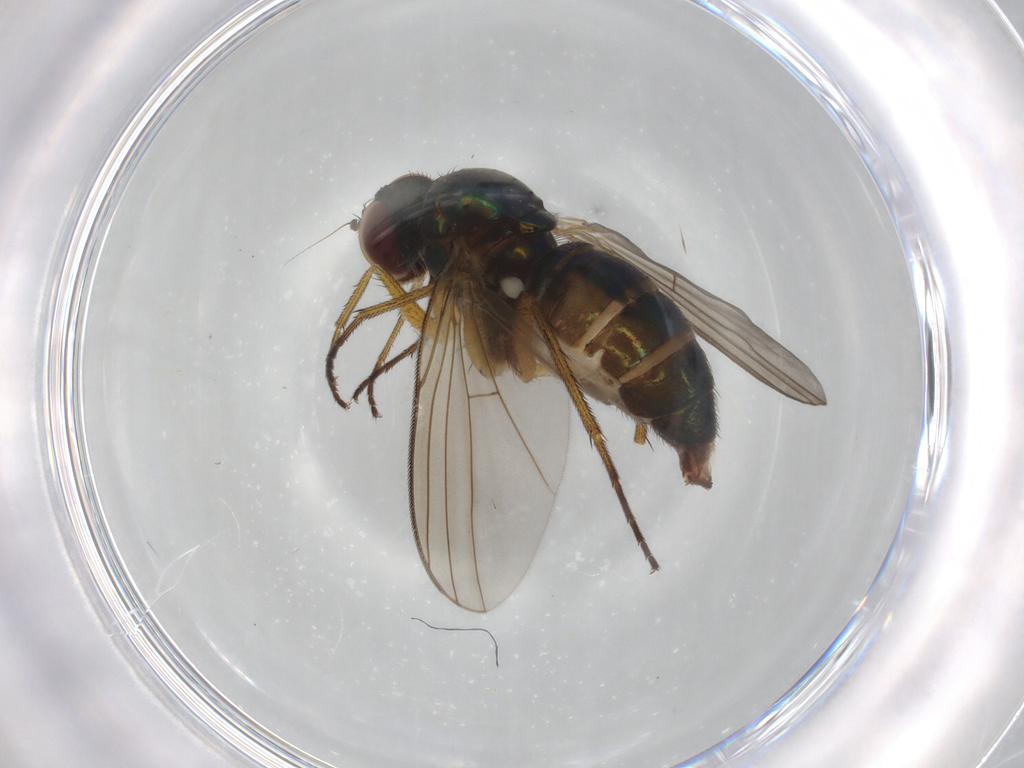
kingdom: Animalia
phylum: Arthropoda
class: Insecta
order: Diptera
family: Dolichopodidae
